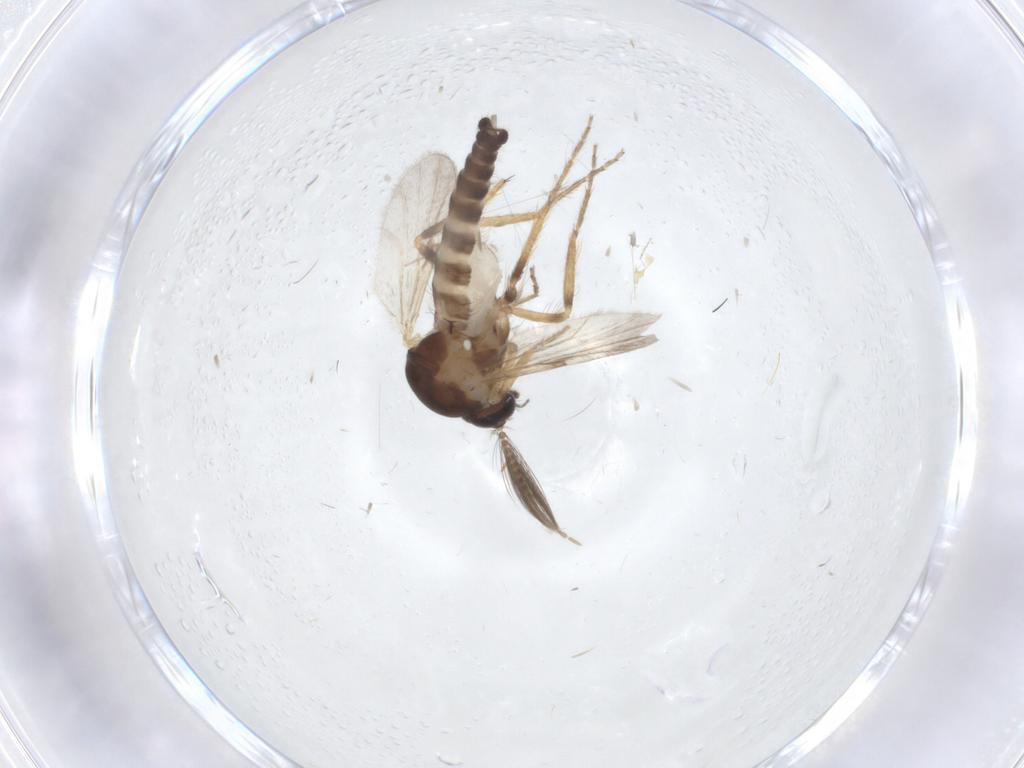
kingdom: Animalia
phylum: Arthropoda
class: Insecta
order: Diptera
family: Ceratopogonidae
